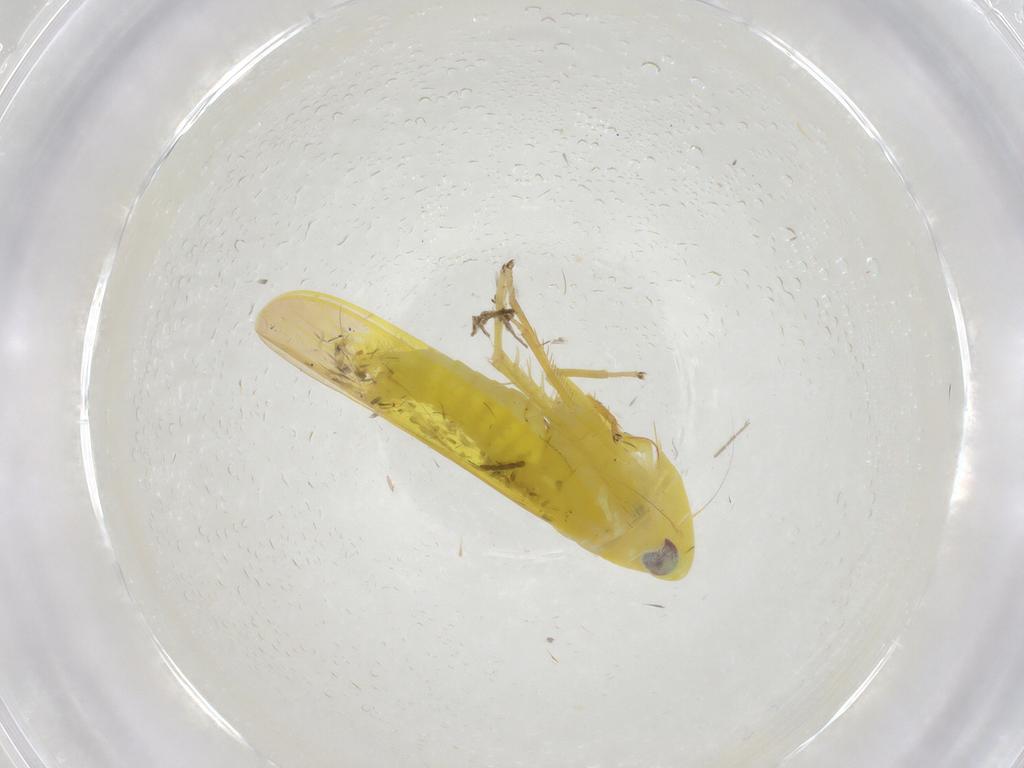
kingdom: Animalia
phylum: Arthropoda
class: Insecta
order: Hemiptera
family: Cicadellidae
